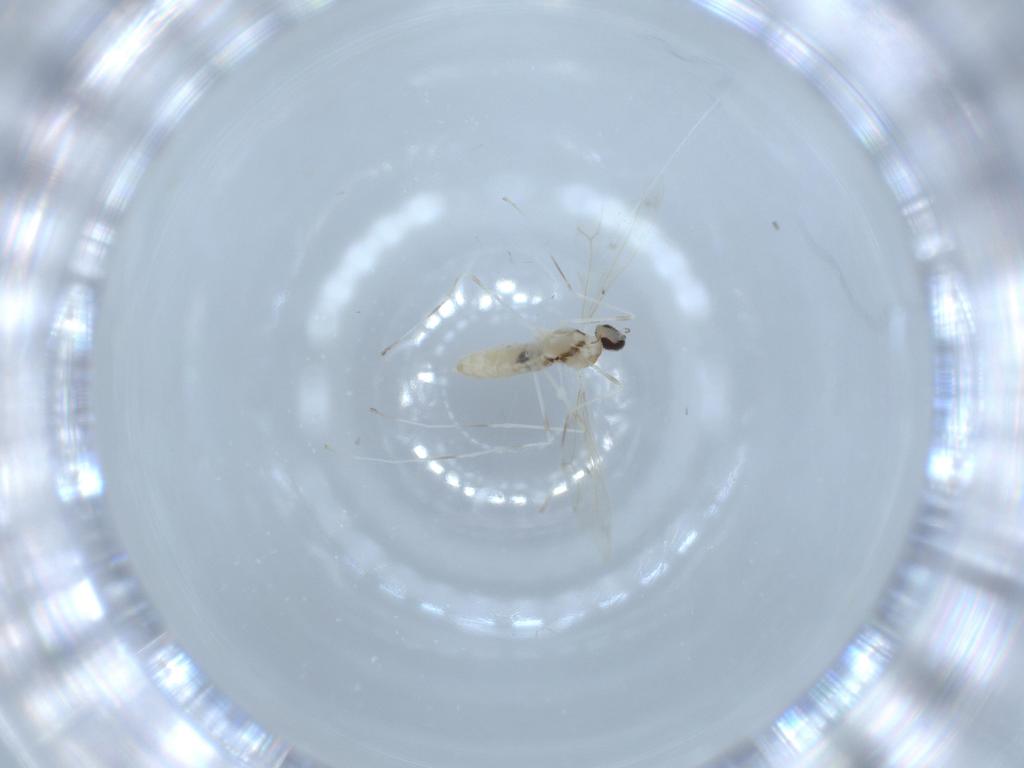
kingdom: Animalia
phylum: Arthropoda
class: Insecta
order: Diptera
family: Cecidomyiidae
